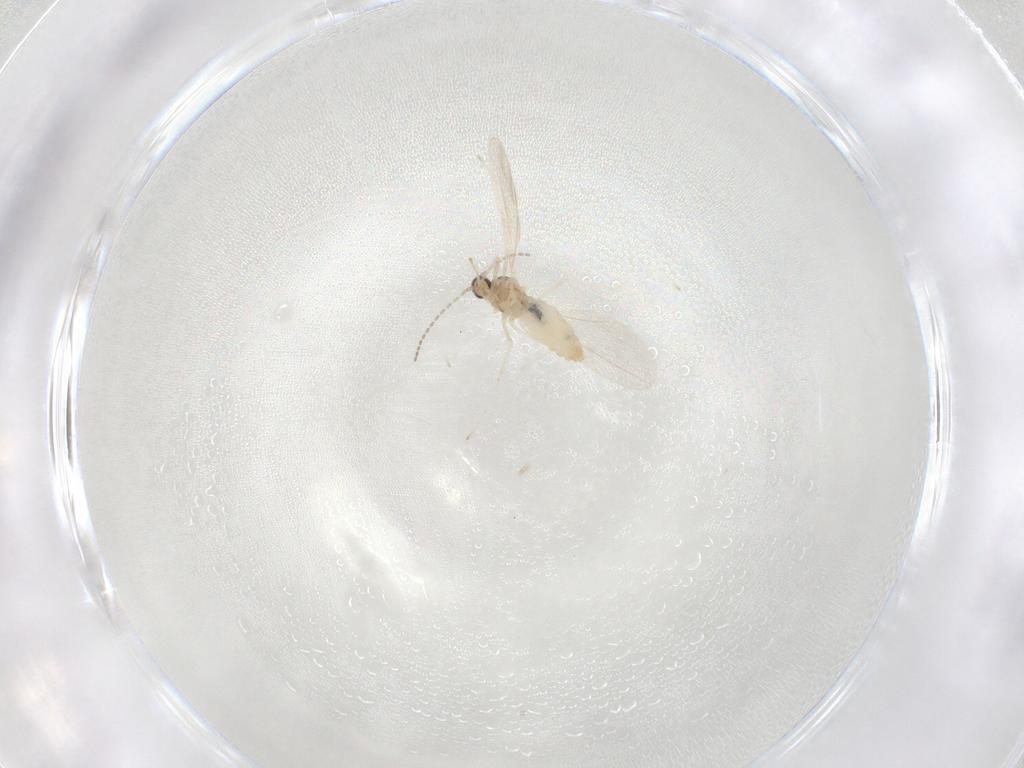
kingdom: Animalia
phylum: Arthropoda
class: Insecta
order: Diptera
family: Cecidomyiidae
